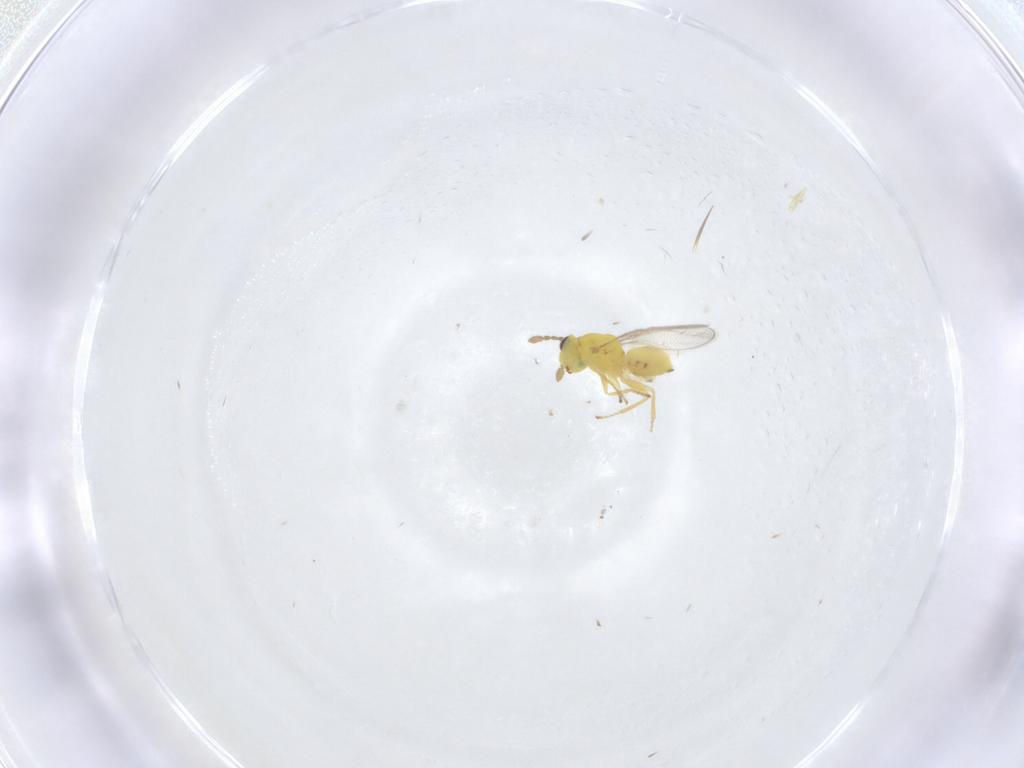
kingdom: Animalia
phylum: Arthropoda
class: Insecta
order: Hymenoptera
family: Eulophidae
